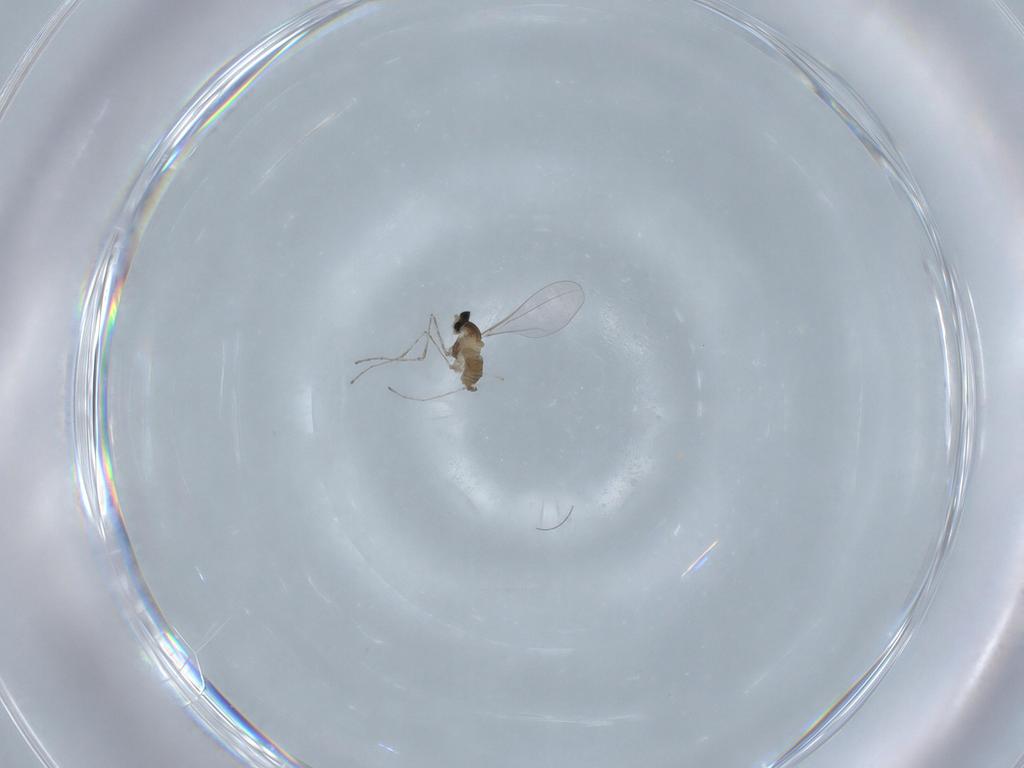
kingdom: Animalia
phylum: Arthropoda
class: Insecta
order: Diptera
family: Cecidomyiidae
